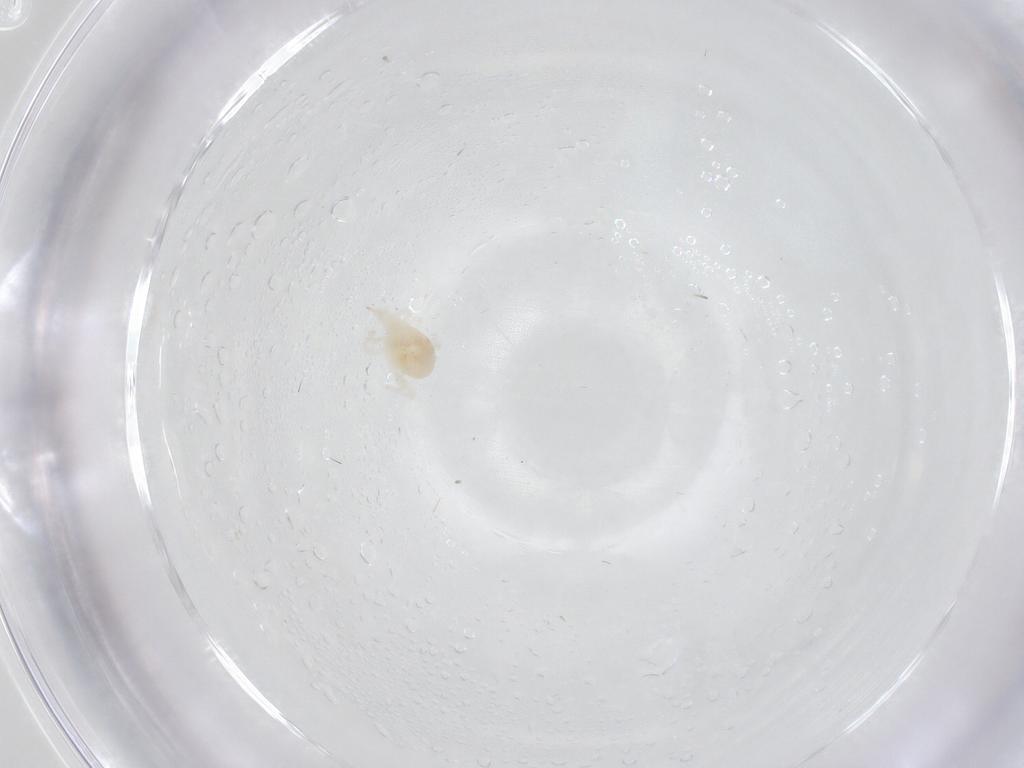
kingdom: Animalia
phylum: Arthropoda
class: Arachnida
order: Trombidiformes
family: Bdellidae
